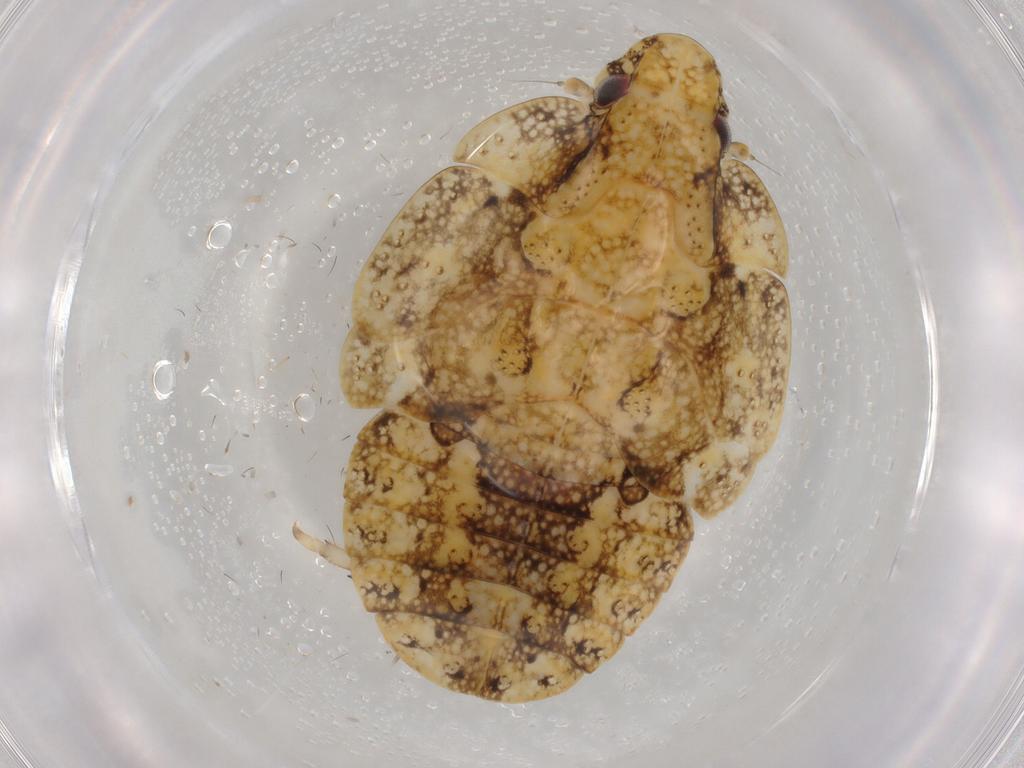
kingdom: Animalia
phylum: Arthropoda
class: Insecta
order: Hemiptera
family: Flatidae
